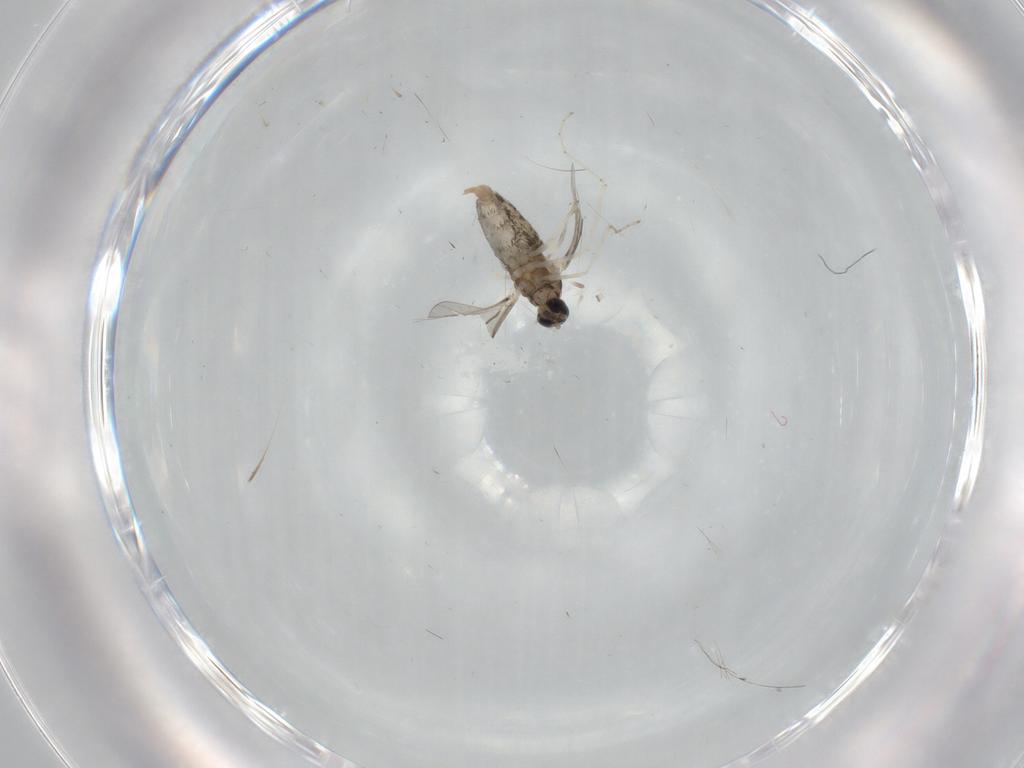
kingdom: Animalia
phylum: Arthropoda
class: Insecta
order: Diptera
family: Cecidomyiidae
